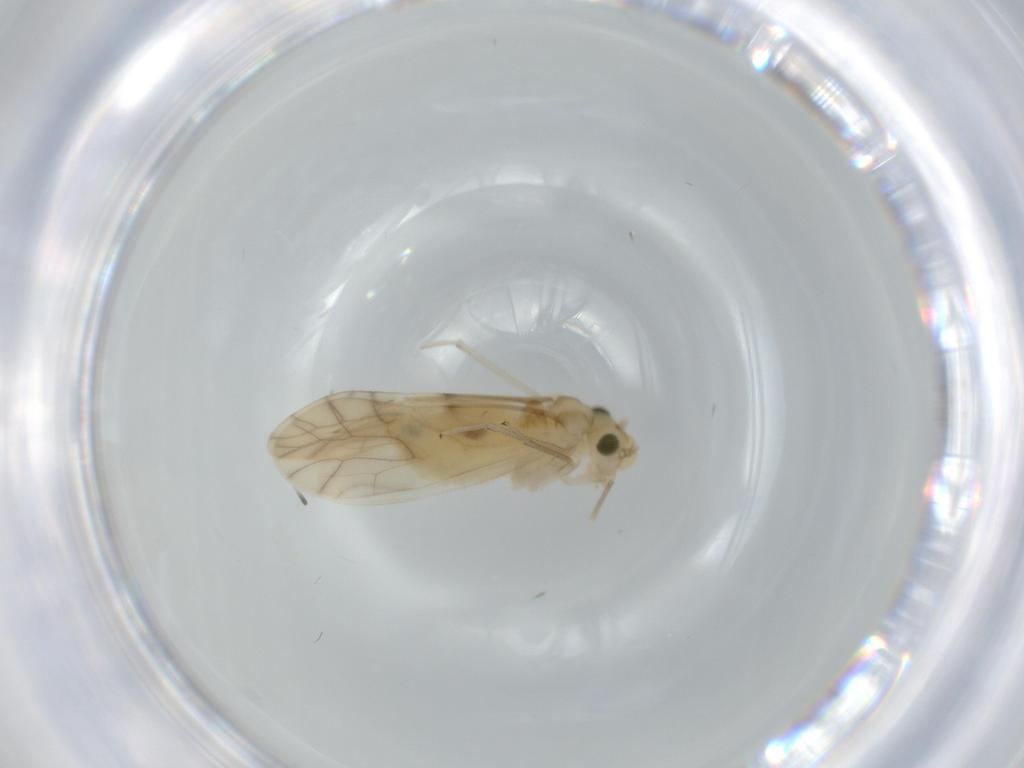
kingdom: Animalia
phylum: Arthropoda
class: Insecta
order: Psocodea
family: Caeciliusidae
